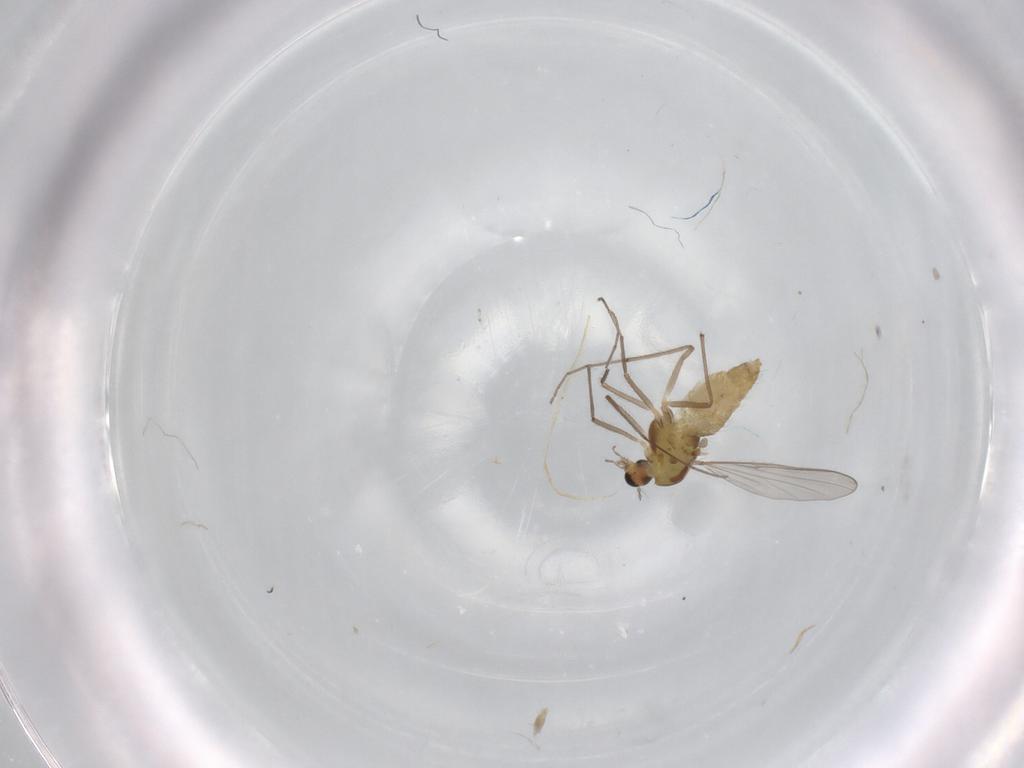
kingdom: Animalia
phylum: Arthropoda
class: Insecta
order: Diptera
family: Chironomidae
